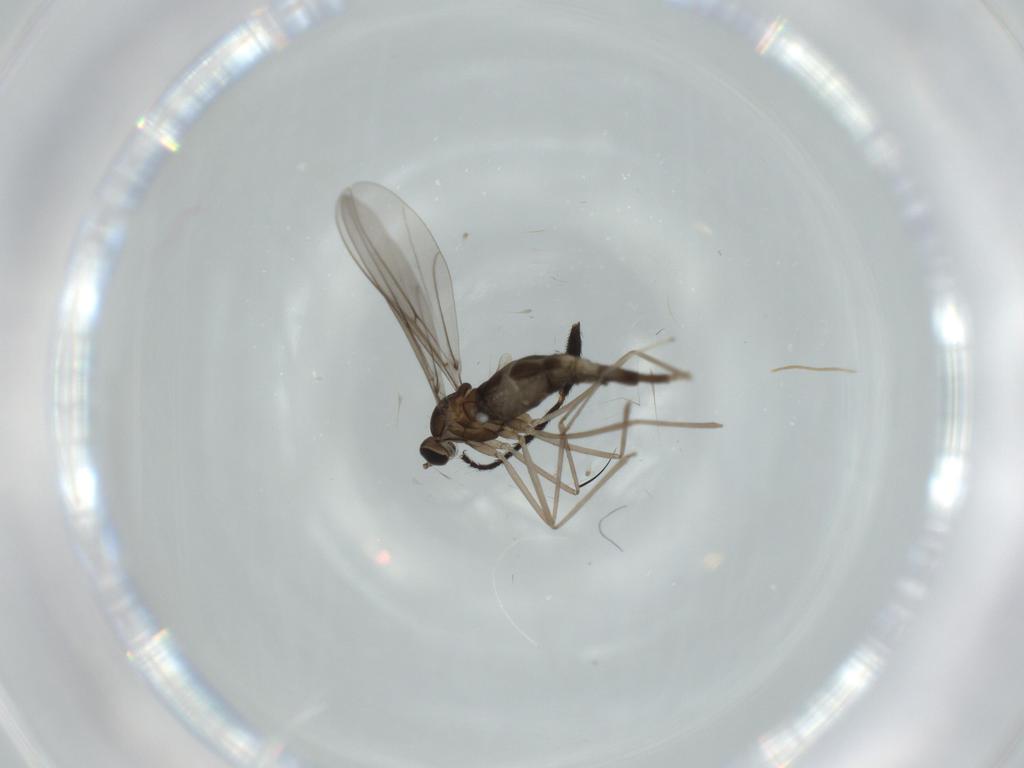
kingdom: Animalia
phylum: Arthropoda
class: Insecta
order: Diptera
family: Cecidomyiidae
